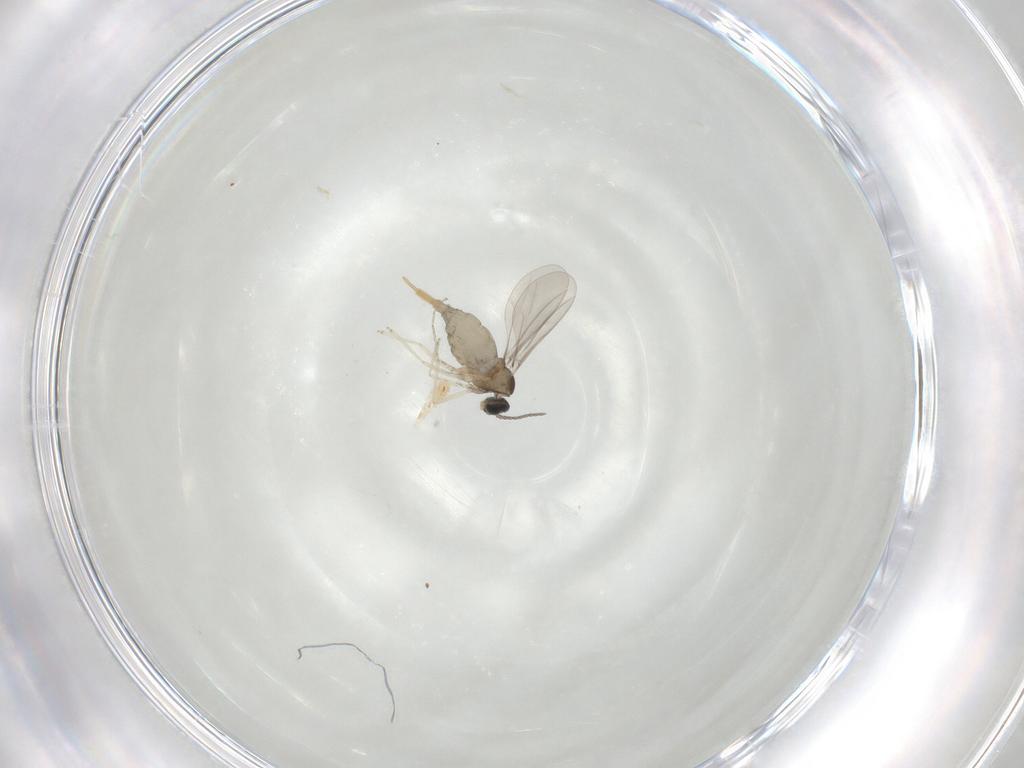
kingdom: Animalia
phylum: Arthropoda
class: Insecta
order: Diptera
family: Cecidomyiidae
